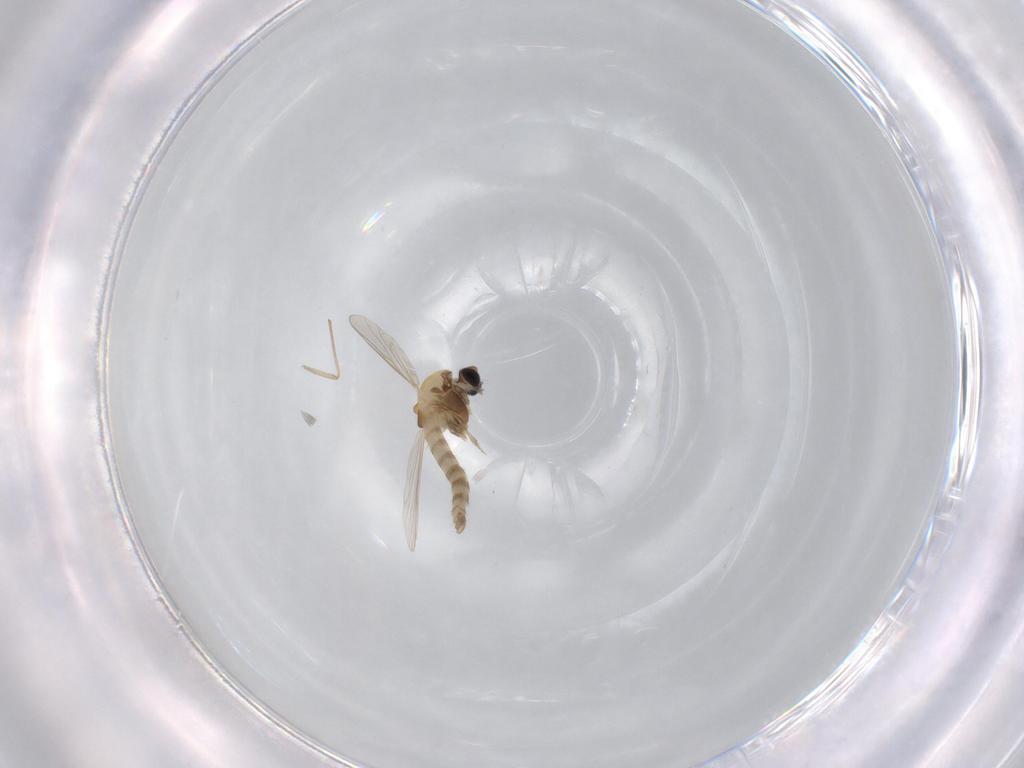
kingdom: Animalia
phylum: Arthropoda
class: Insecta
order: Diptera
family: Chironomidae
